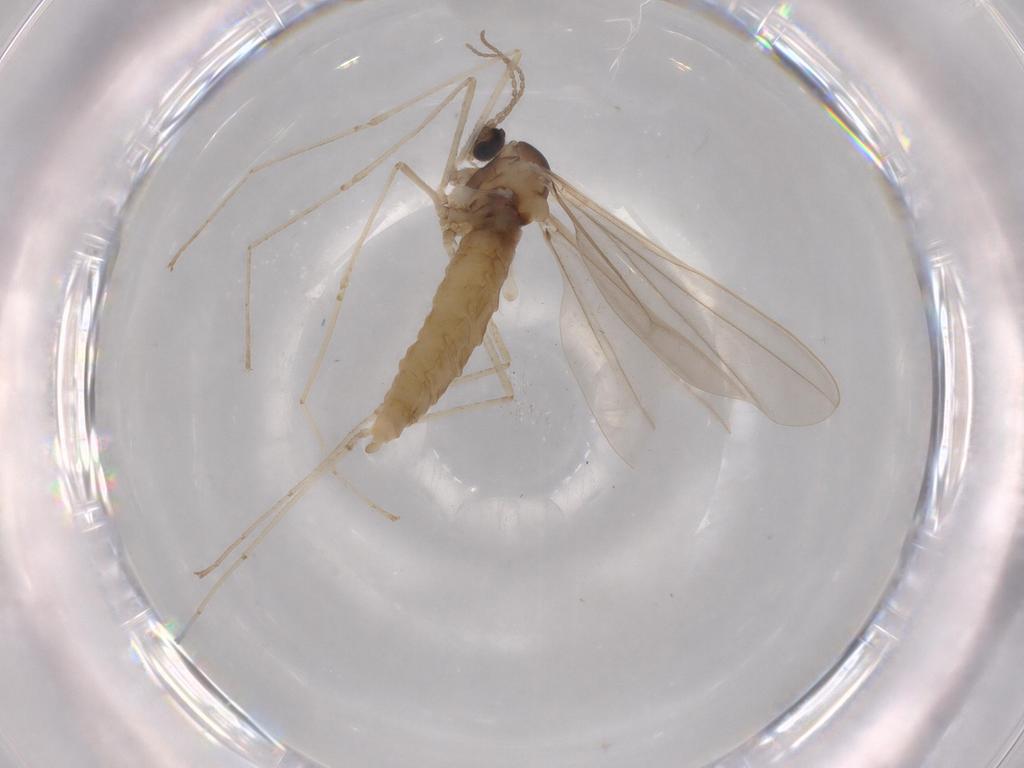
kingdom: Animalia
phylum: Arthropoda
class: Insecta
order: Diptera
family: Cecidomyiidae
